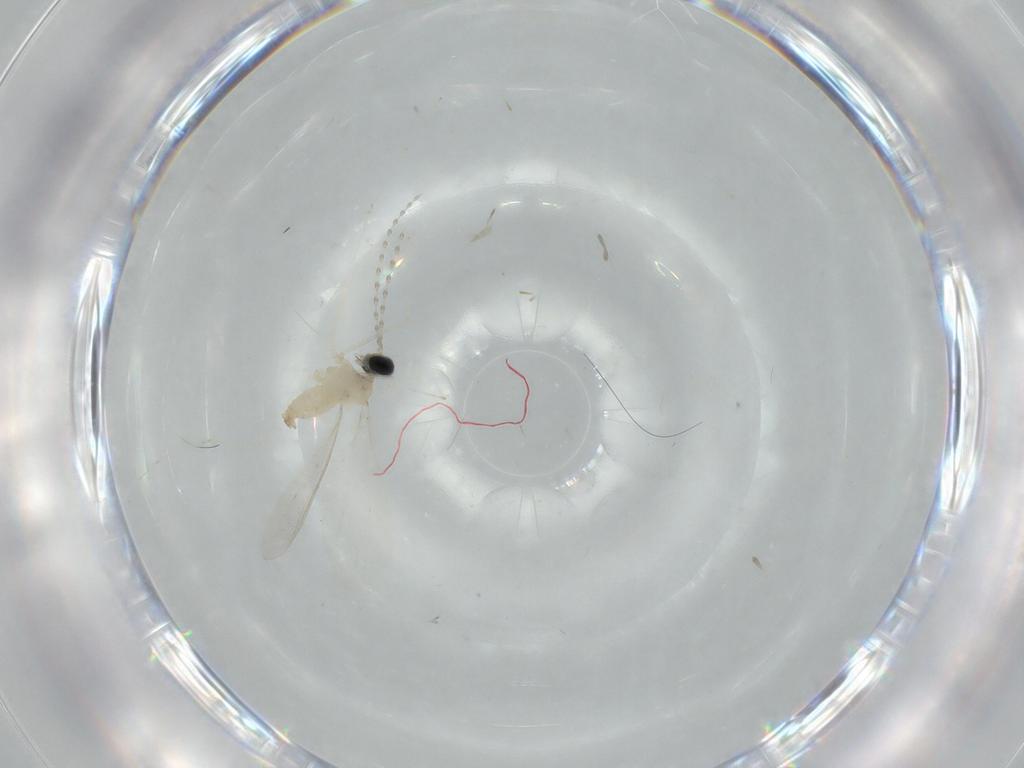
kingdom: Animalia
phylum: Arthropoda
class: Insecta
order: Diptera
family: Cecidomyiidae
